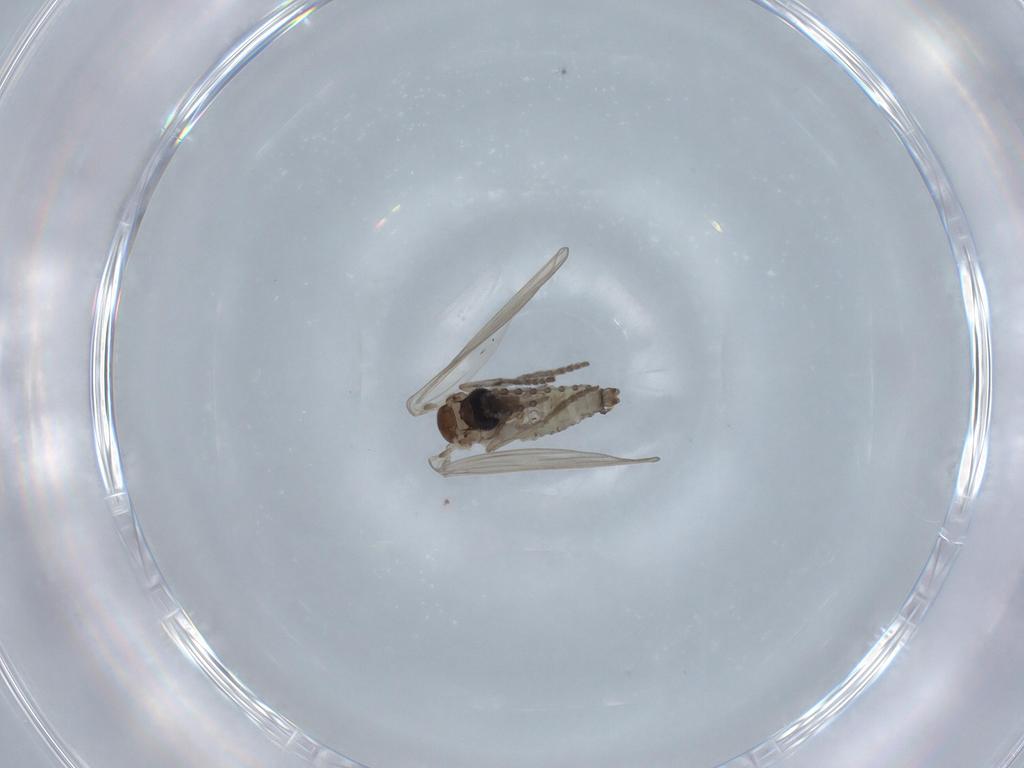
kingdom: Animalia
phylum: Arthropoda
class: Insecta
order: Diptera
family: Psychodidae
